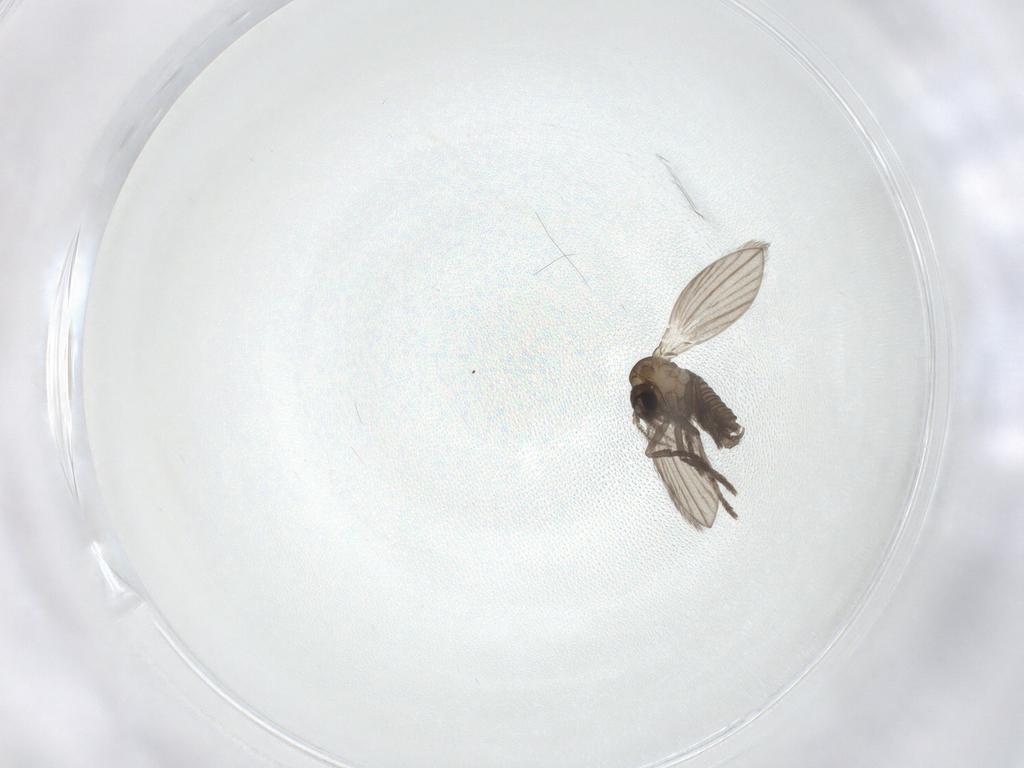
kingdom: Animalia
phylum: Arthropoda
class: Insecta
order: Diptera
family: Psychodidae
